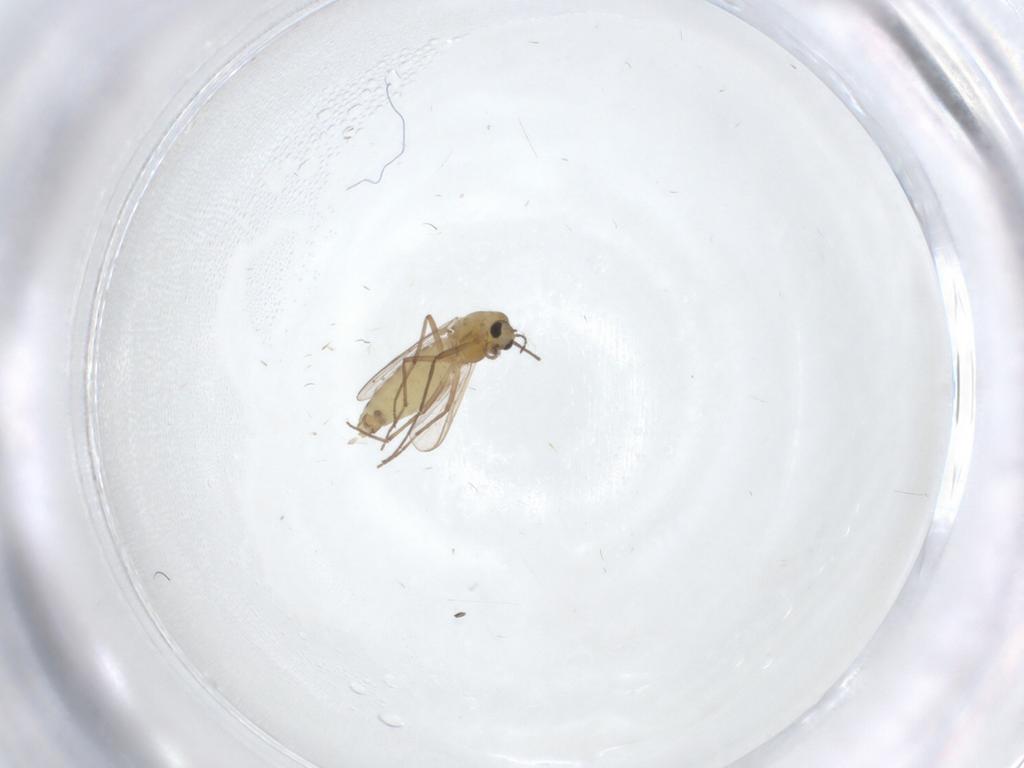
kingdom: Animalia
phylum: Arthropoda
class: Insecta
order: Diptera
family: Chironomidae
